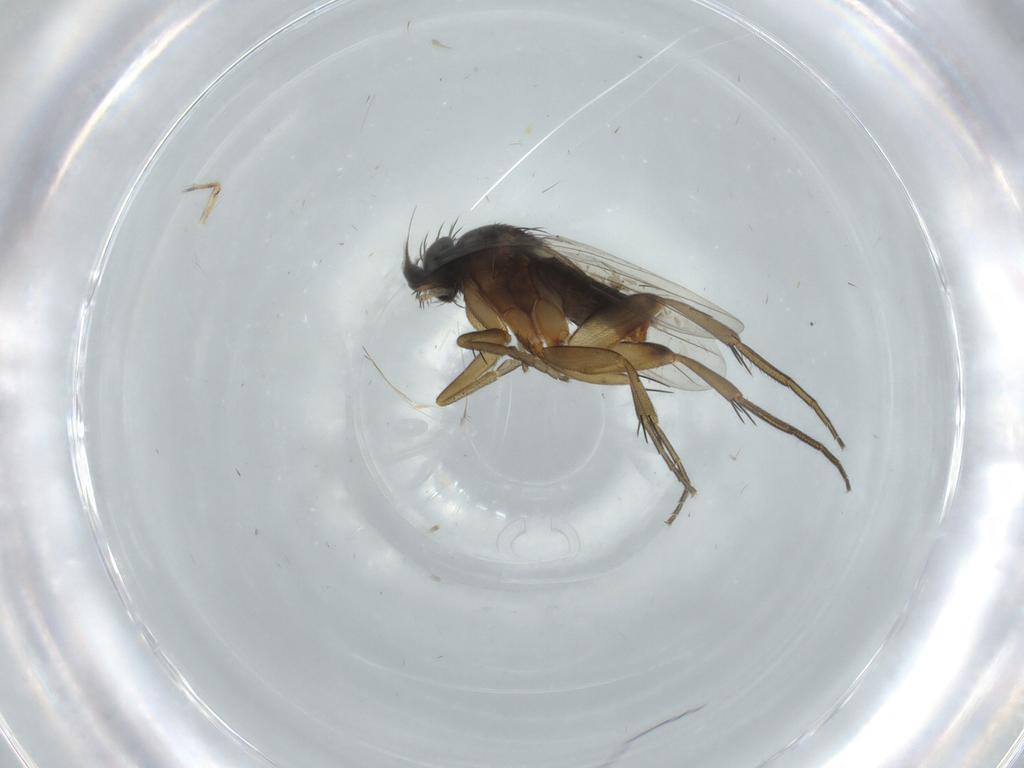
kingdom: Animalia
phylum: Arthropoda
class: Insecta
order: Diptera
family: Phoridae
